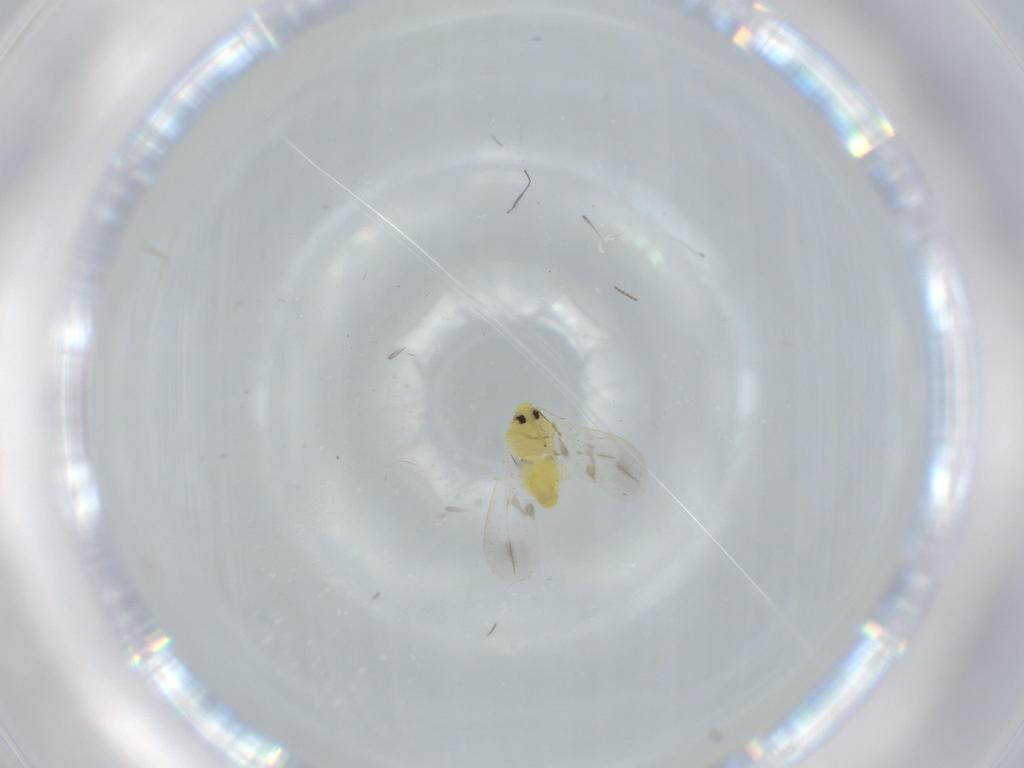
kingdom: Animalia
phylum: Arthropoda
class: Insecta
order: Hemiptera
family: Aleyrodidae
